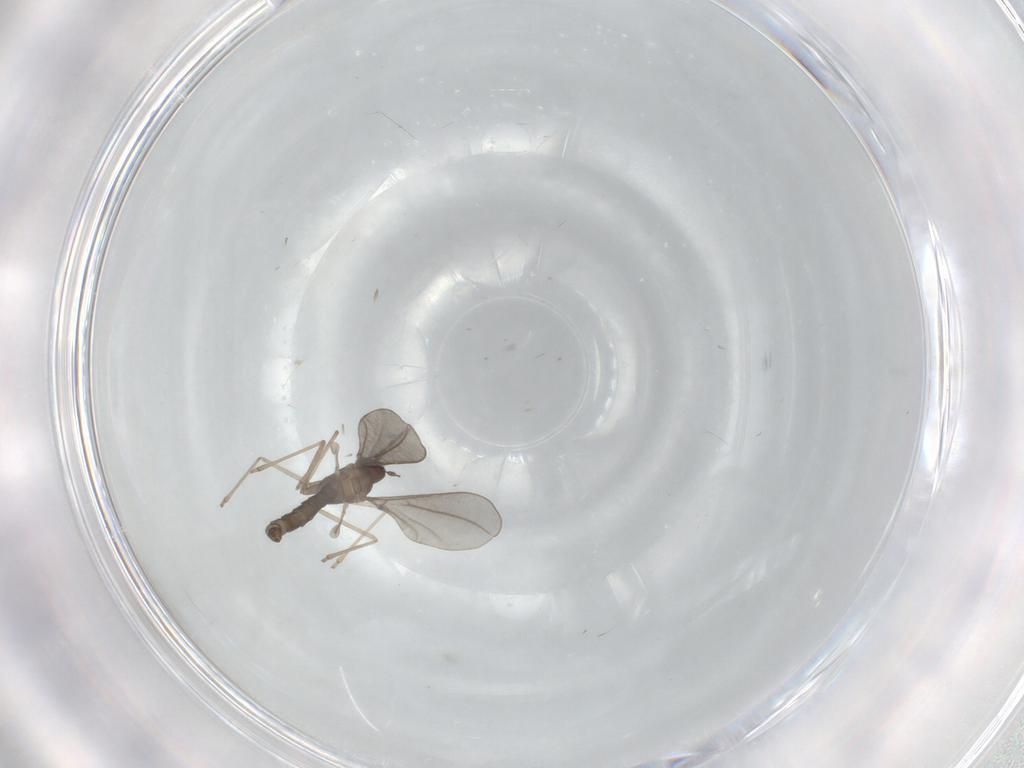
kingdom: Animalia
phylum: Arthropoda
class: Insecta
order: Diptera
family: Cecidomyiidae
